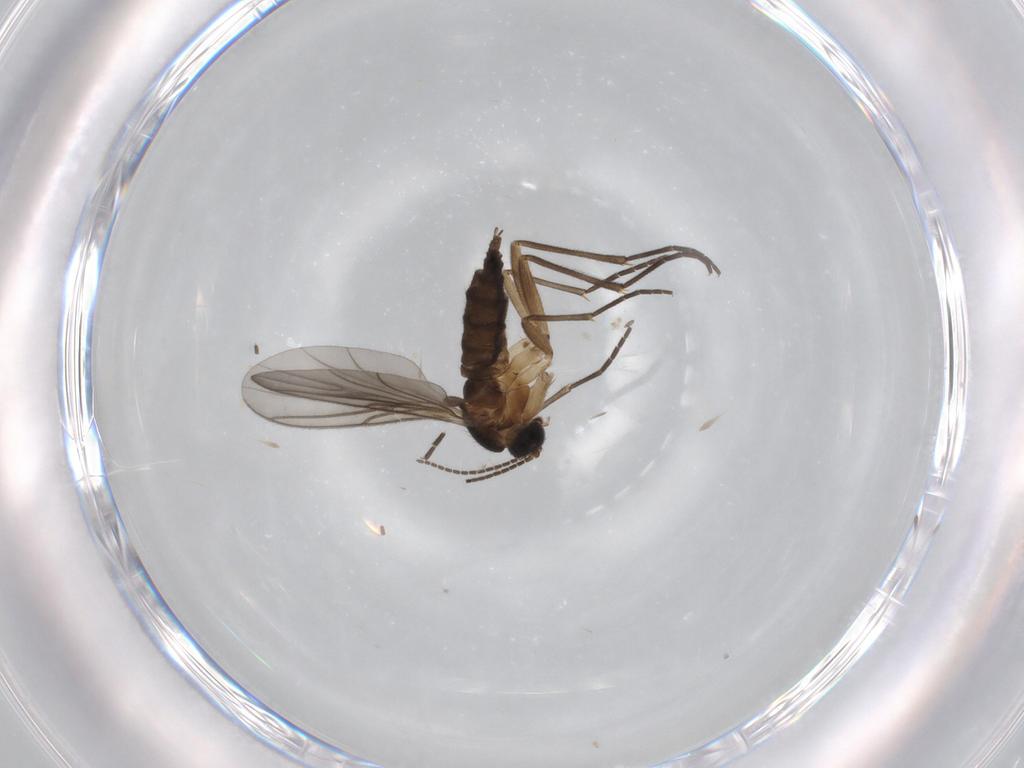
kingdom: Animalia
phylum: Arthropoda
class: Insecta
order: Diptera
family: Sciaridae
